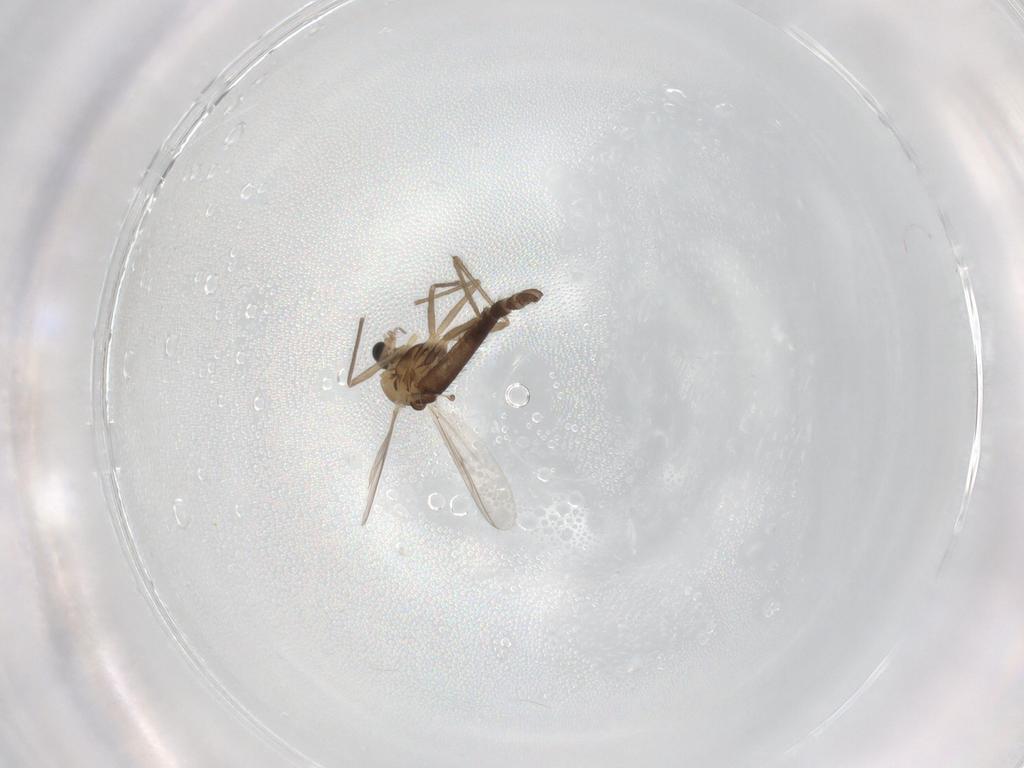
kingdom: Animalia
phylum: Arthropoda
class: Insecta
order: Diptera
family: Chironomidae
